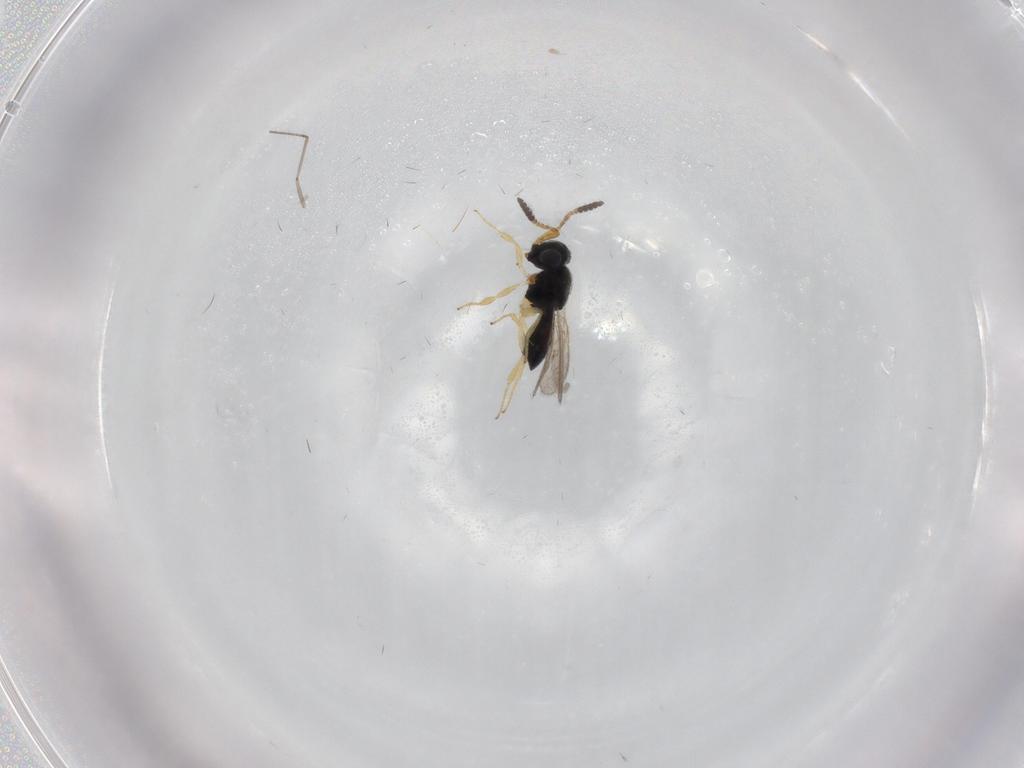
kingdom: Animalia
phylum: Arthropoda
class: Insecta
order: Hymenoptera
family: Scelionidae
